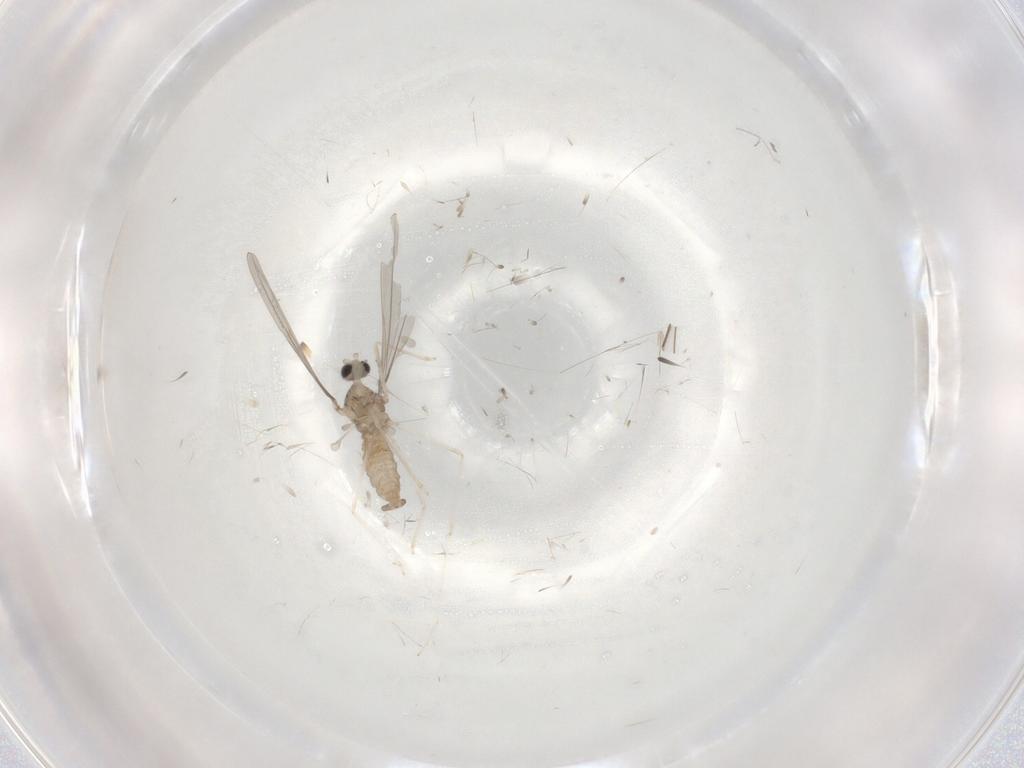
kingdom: Animalia
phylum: Arthropoda
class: Insecta
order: Diptera
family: Cecidomyiidae
